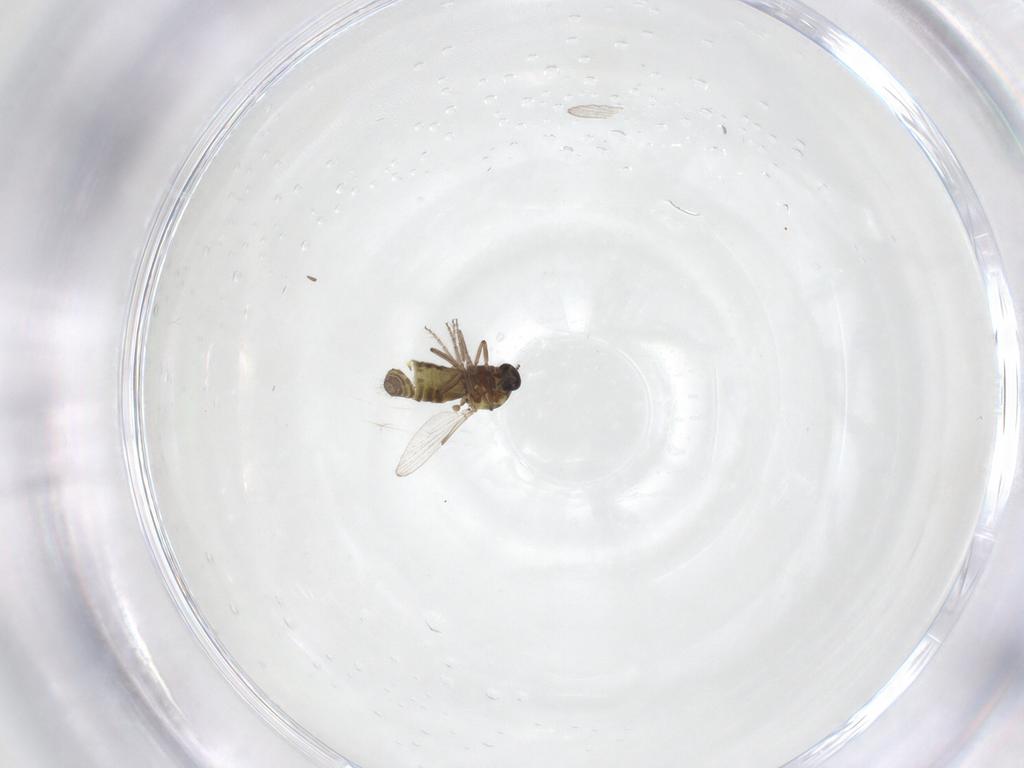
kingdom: Animalia
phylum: Arthropoda
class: Insecta
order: Diptera
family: Ceratopogonidae
